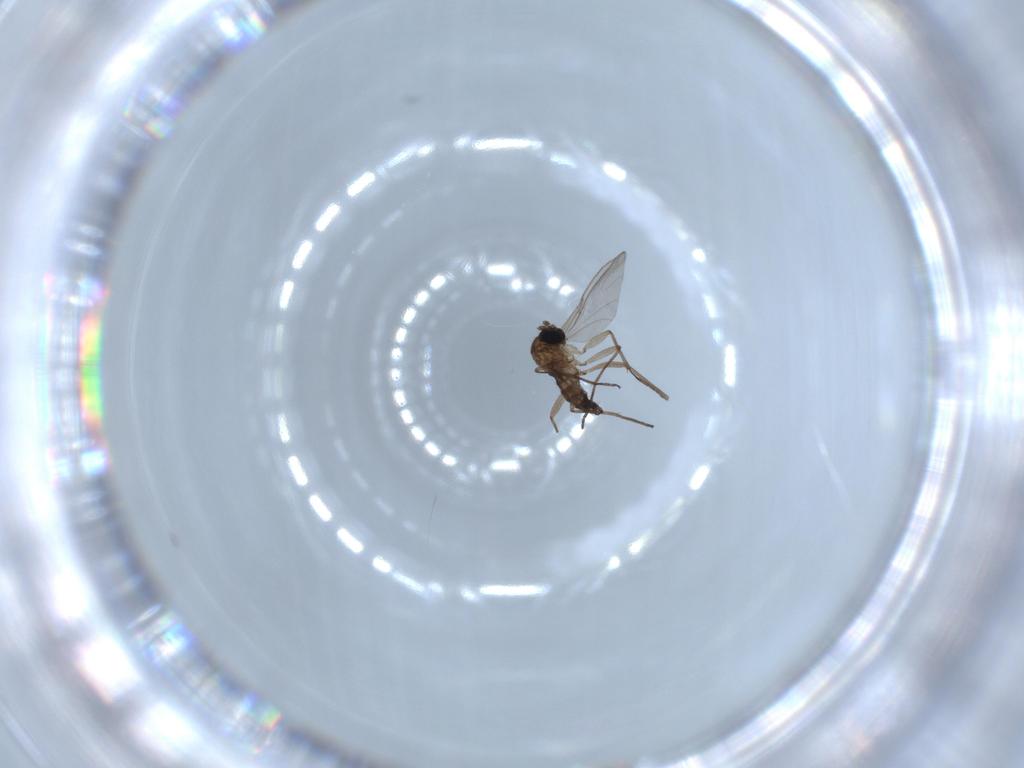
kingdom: Animalia
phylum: Arthropoda
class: Insecta
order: Diptera
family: Sciaridae
